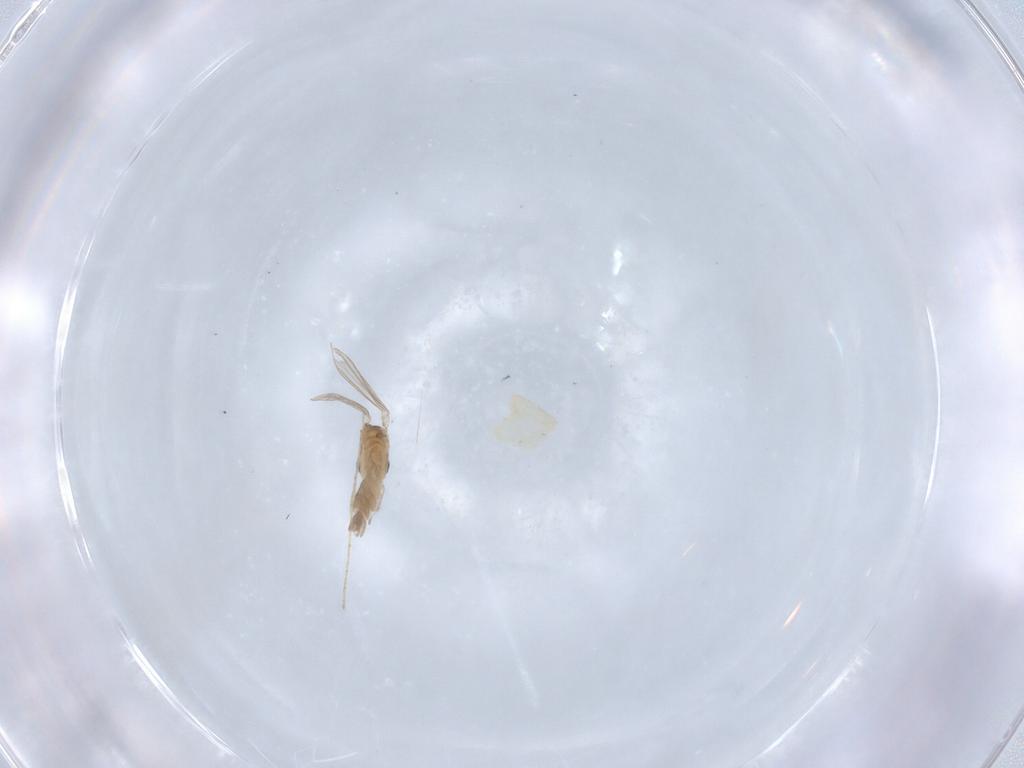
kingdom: Animalia
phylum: Arthropoda
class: Insecta
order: Diptera
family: Psychodidae
